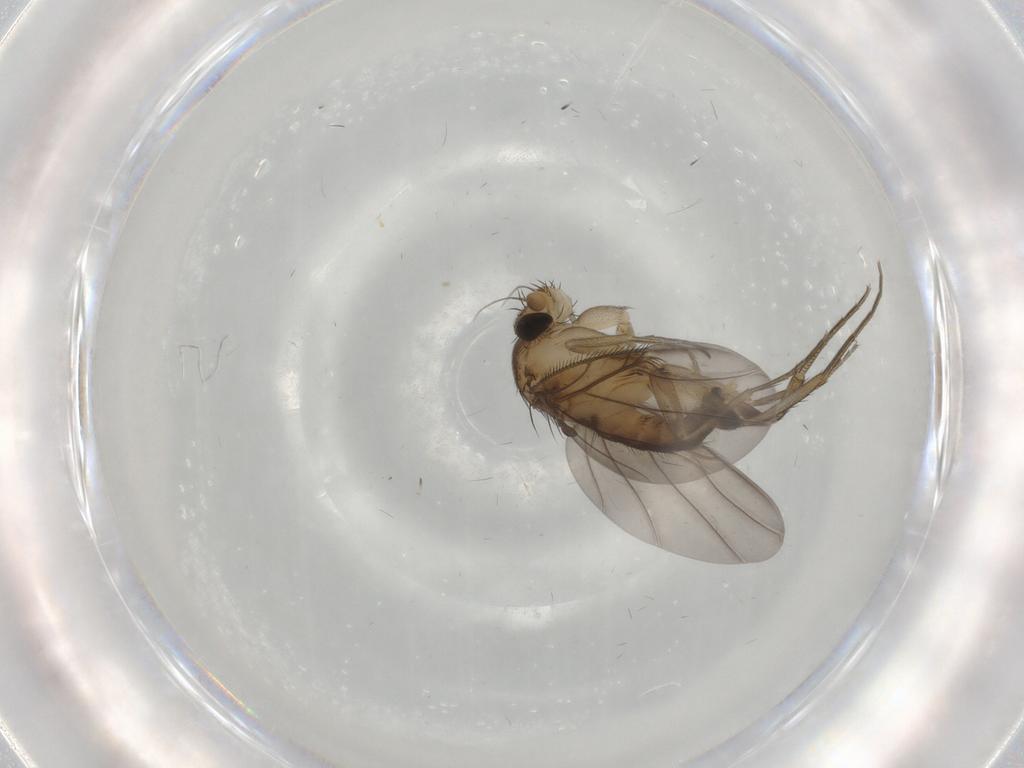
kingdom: Animalia
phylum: Arthropoda
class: Insecta
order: Diptera
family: Phoridae
